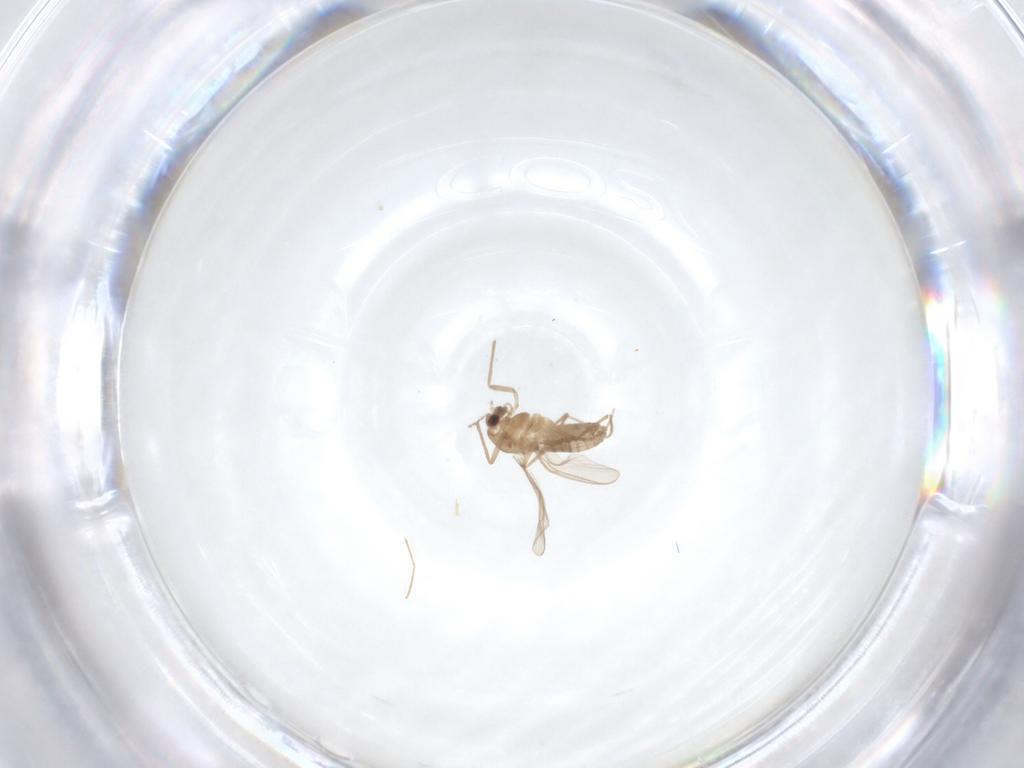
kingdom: Animalia
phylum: Arthropoda
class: Insecta
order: Diptera
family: Chironomidae
